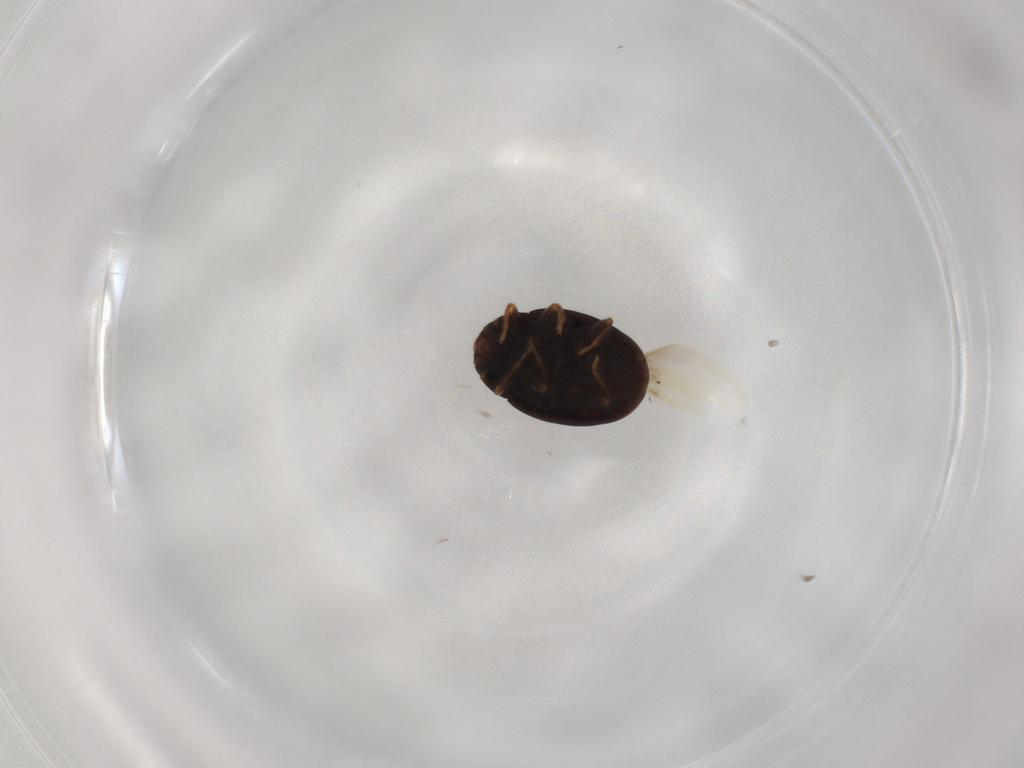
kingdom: Animalia
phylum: Arthropoda
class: Insecta
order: Coleoptera
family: Coccinellidae
